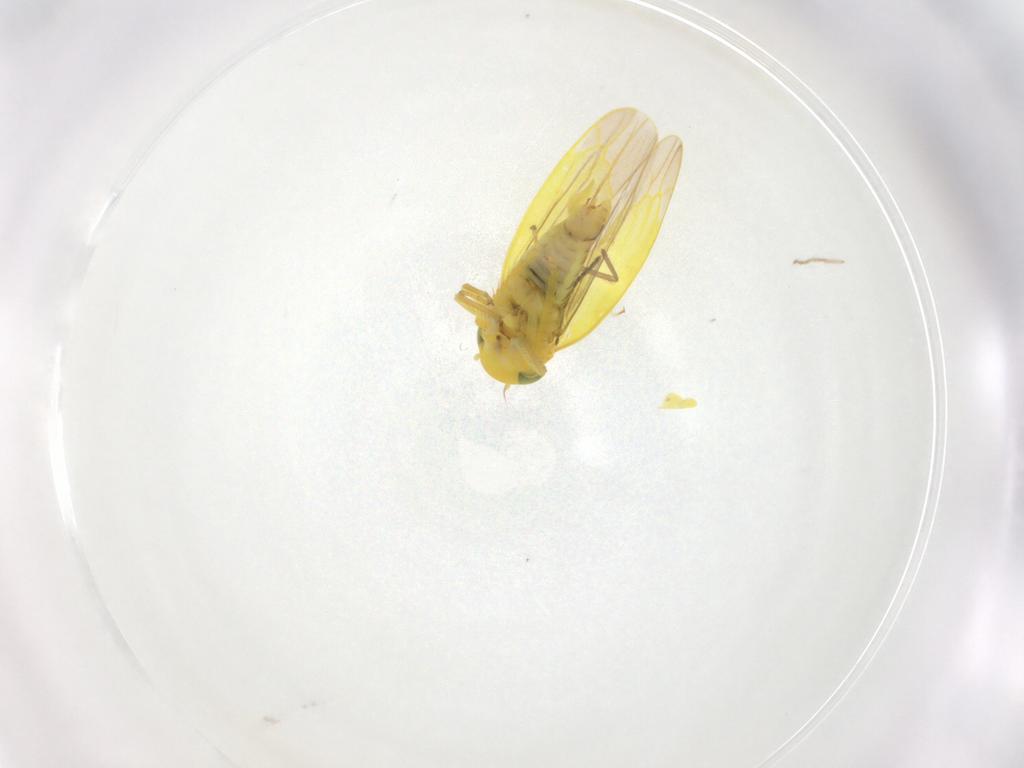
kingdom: Animalia
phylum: Arthropoda
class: Insecta
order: Hemiptera
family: Cicadellidae
